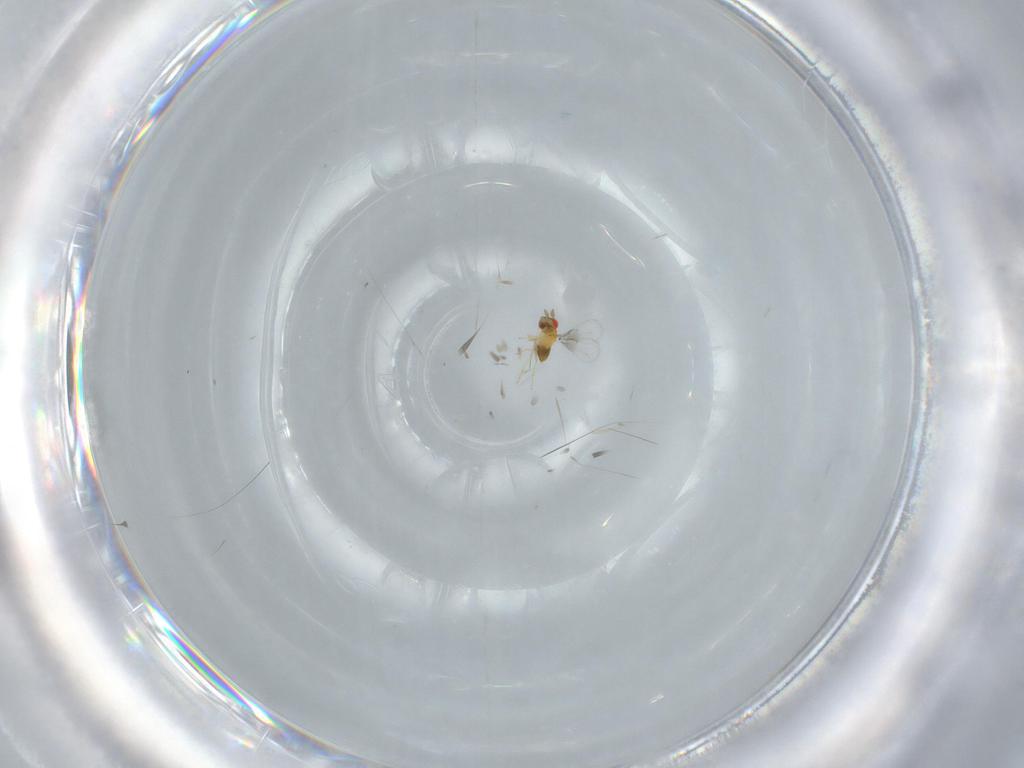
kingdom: Animalia
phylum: Arthropoda
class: Insecta
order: Hymenoptera
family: Trichogrammatidae
